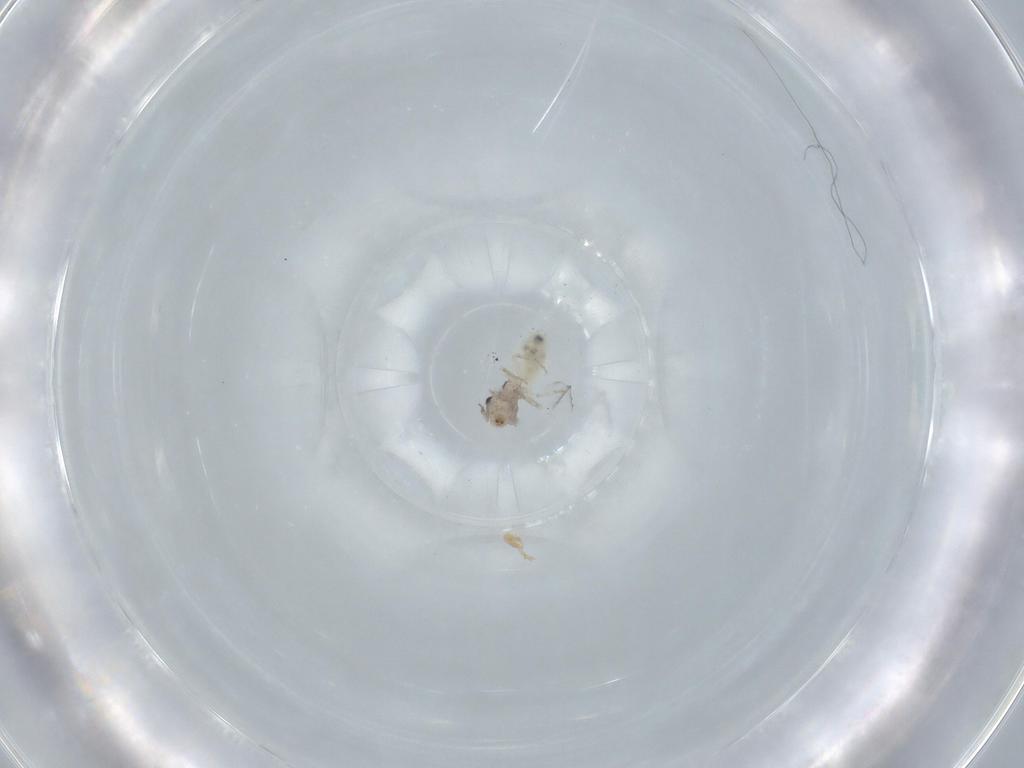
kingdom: Animalia
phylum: Arthropoda
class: Insecta
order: Psocodea
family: Lepidopsocidae
